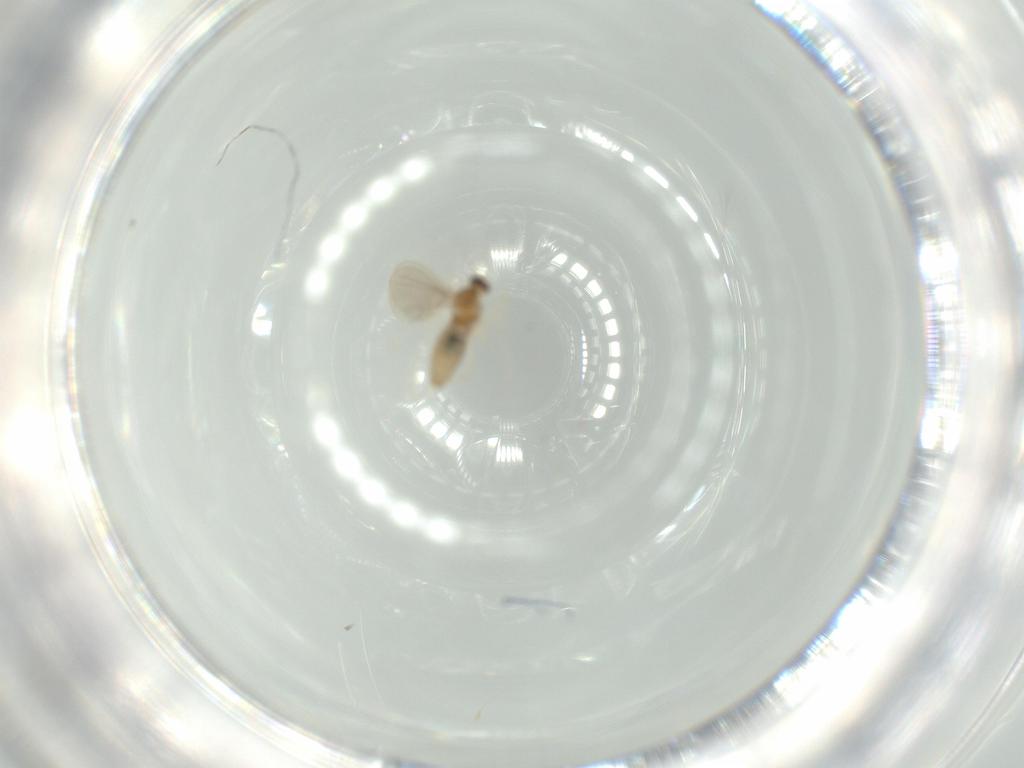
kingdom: Animalia
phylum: Arthropoda
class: Insecta
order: Diptera
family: Cecidomyiidae
